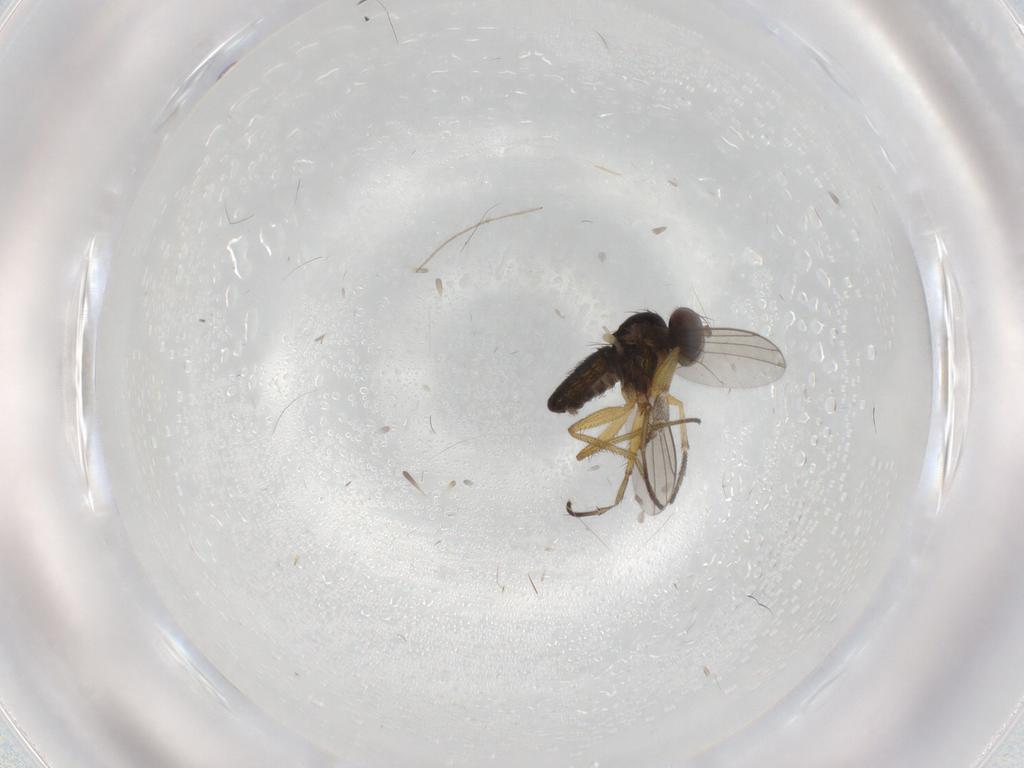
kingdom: Animalia
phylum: Arthropoda
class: Insecta
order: Diptera
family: Dolichopodidae
